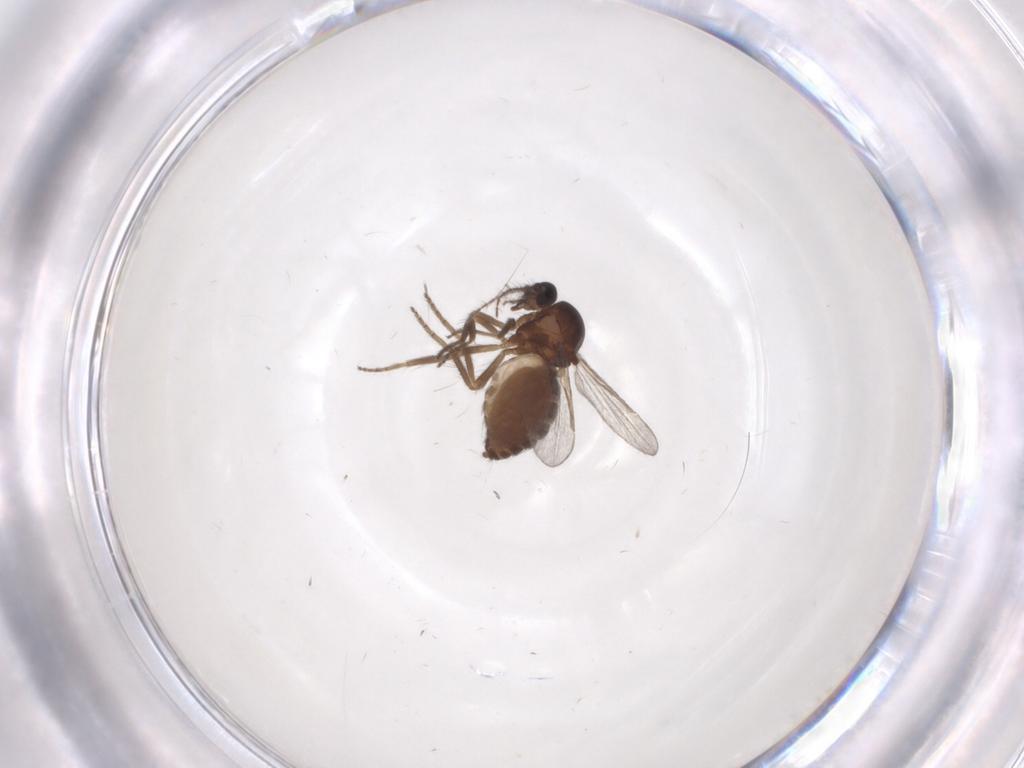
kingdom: Animalia
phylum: Arthropoda
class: Insecta
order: Diptera
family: Ceratopogonidae
